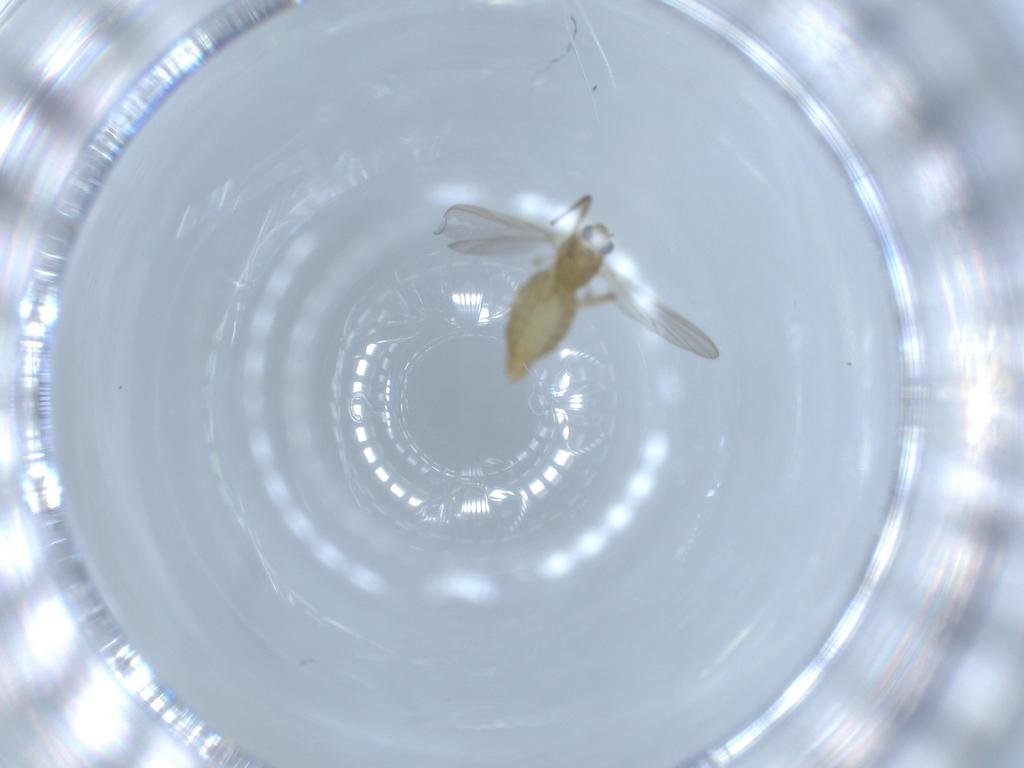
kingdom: Animalia
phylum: Arthropoda
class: Insecta
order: Diptera
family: Chironomidae
